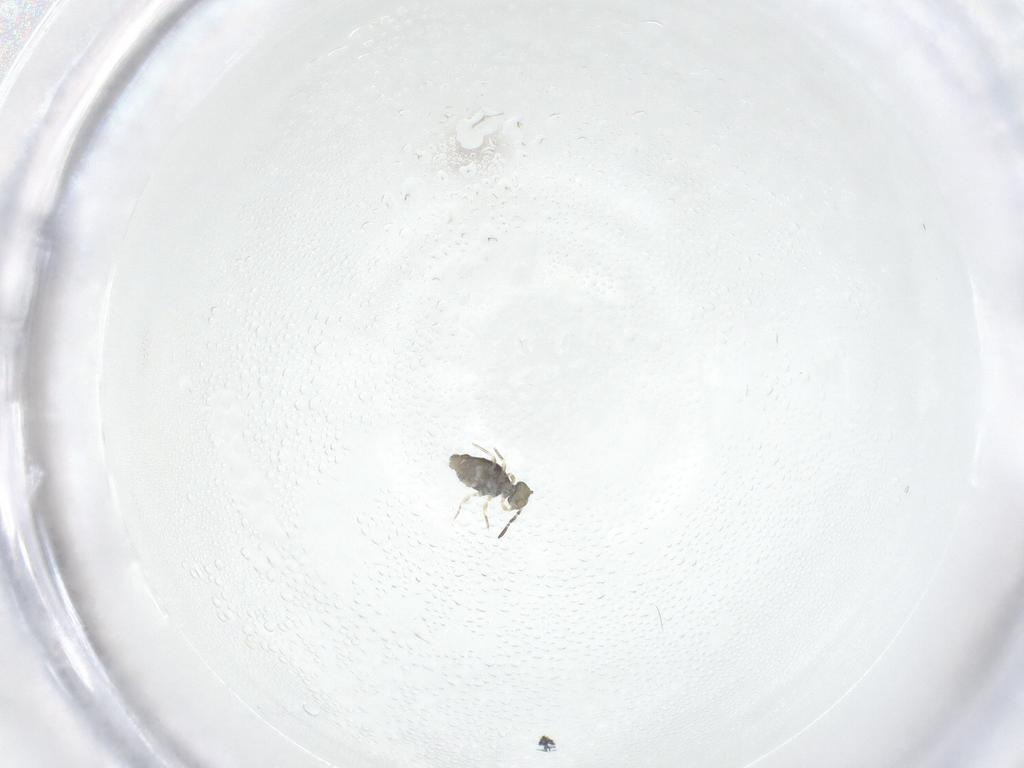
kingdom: Animalia
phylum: Arthropoda
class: Collembola
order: Symphypleona
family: Katiannidae
